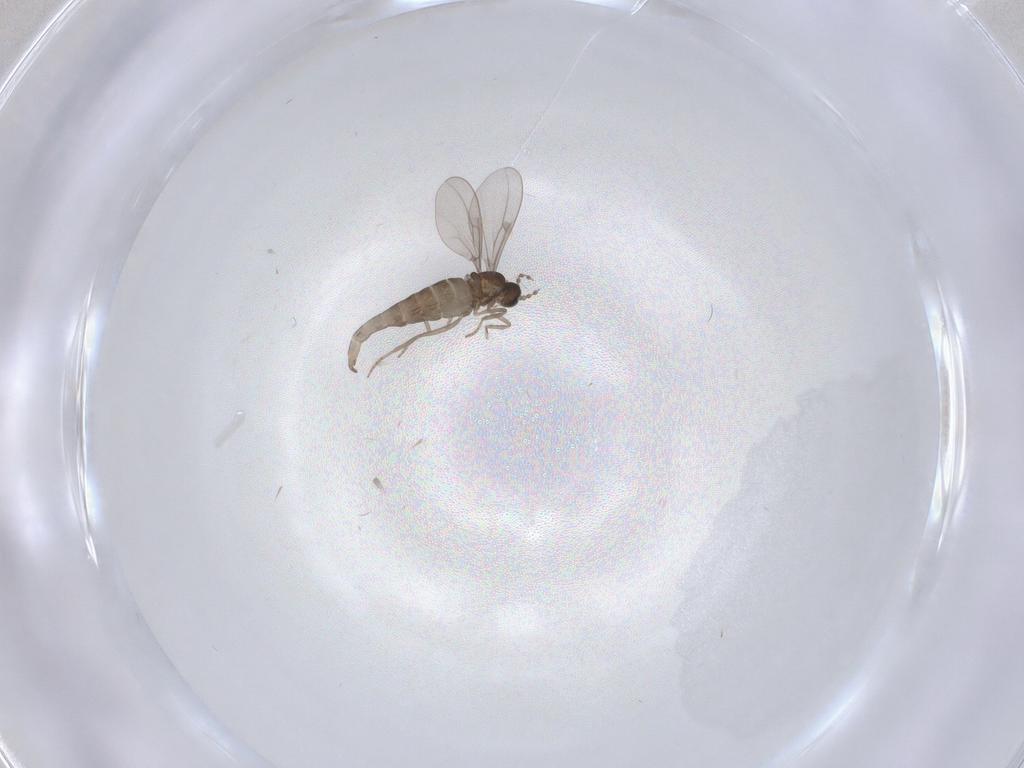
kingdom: Animalia
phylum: Arthropoda
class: Insecta
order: Diptera
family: Cecidomyiidae
